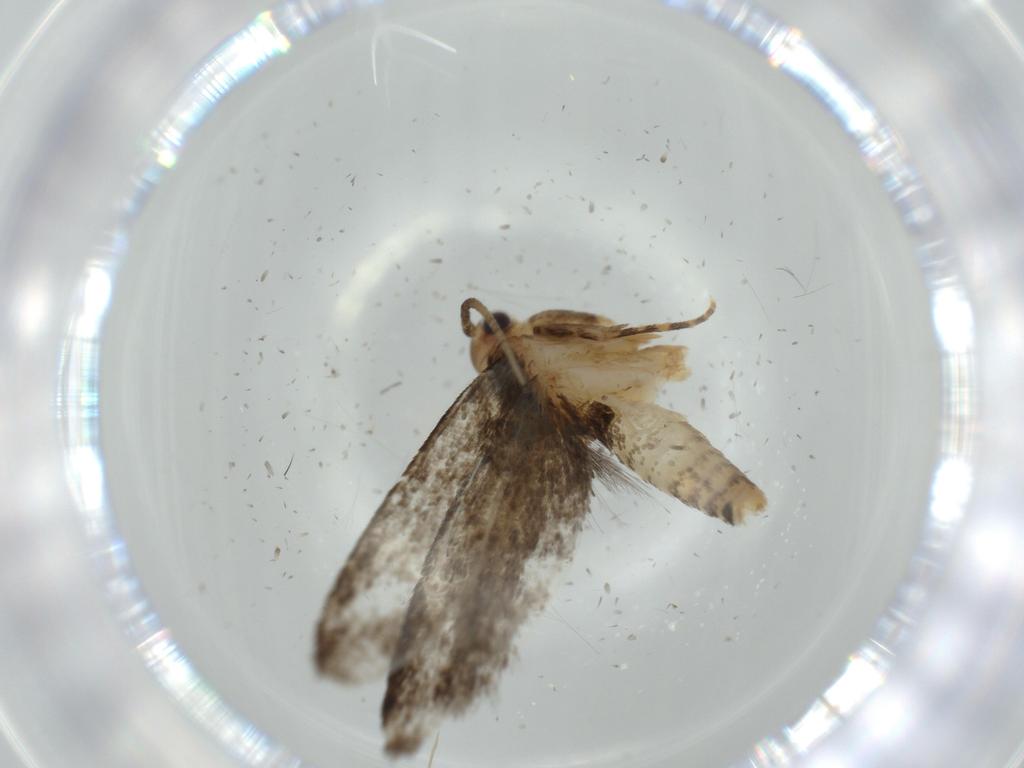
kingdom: Animalia
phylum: Arthropoda
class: Insecta
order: Lepidoptera
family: Tineidae
